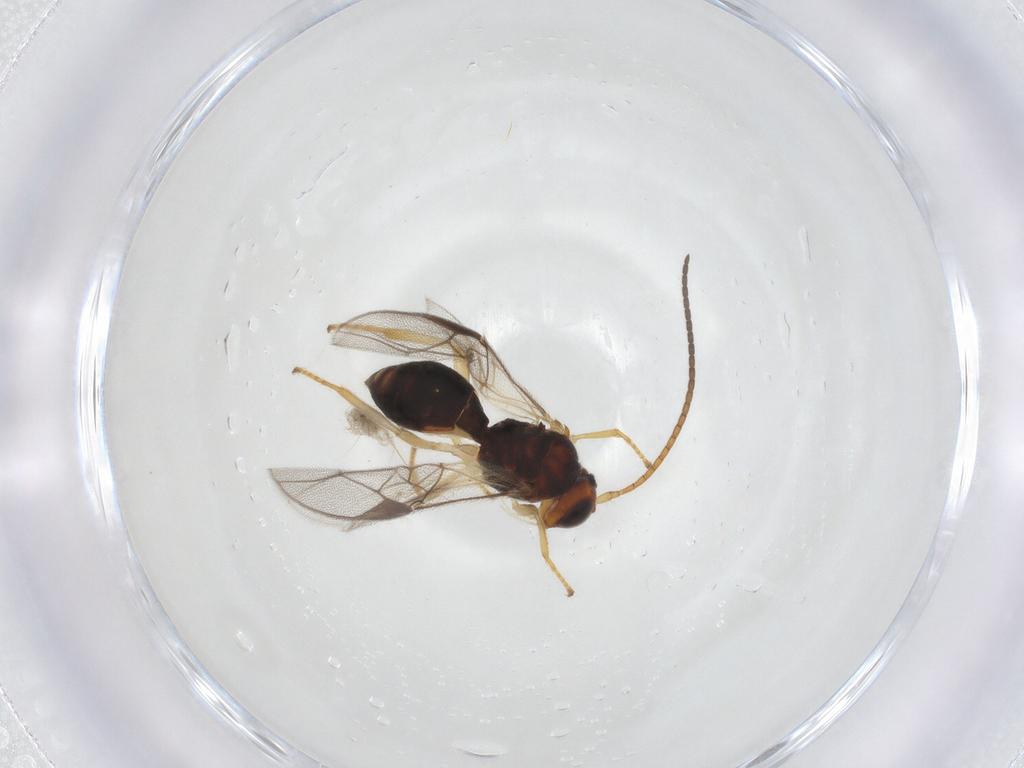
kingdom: Animalia
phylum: Arthropoda
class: Insecta
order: Hymenoptera
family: Braconidae
